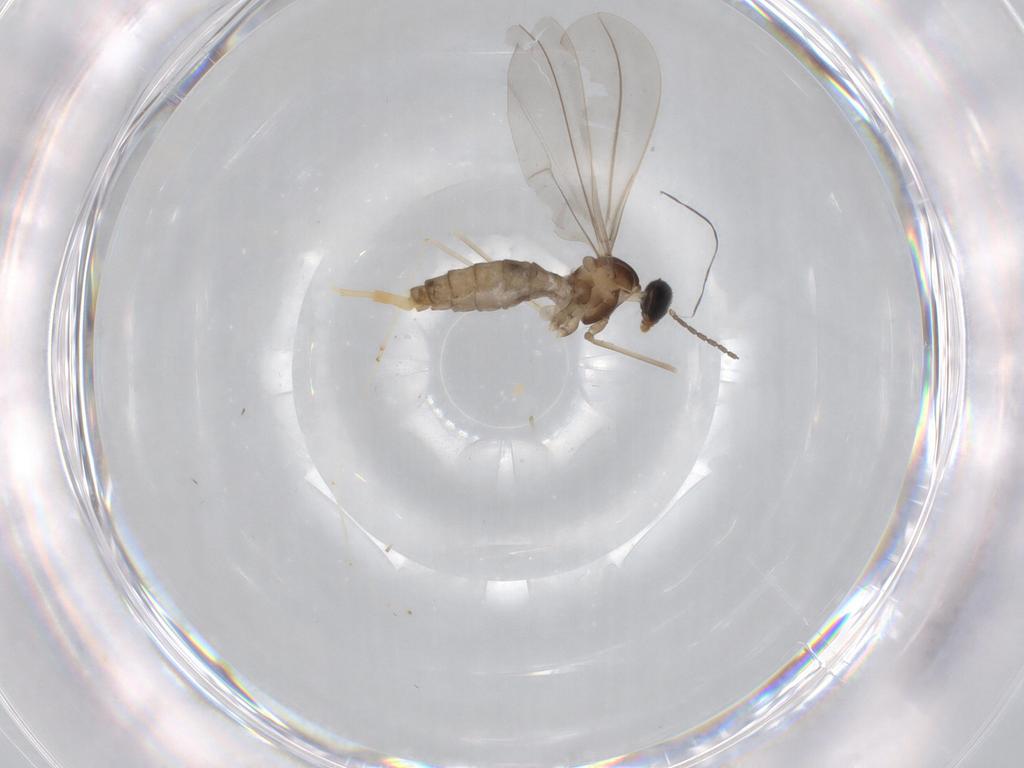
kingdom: Animalia
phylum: Arthropoda
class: Insecta
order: Diptera
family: Cecidomyiidae
